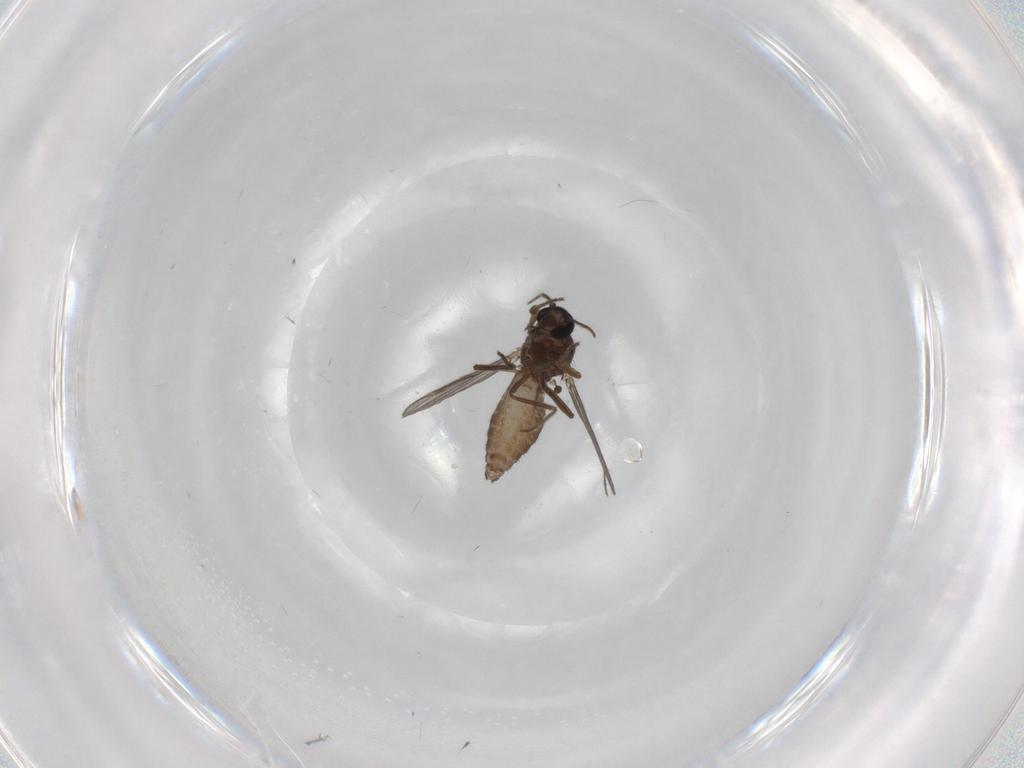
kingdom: Animalia
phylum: Arthropoda
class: Insecta
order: Diptera
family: Ceratopogonidae
